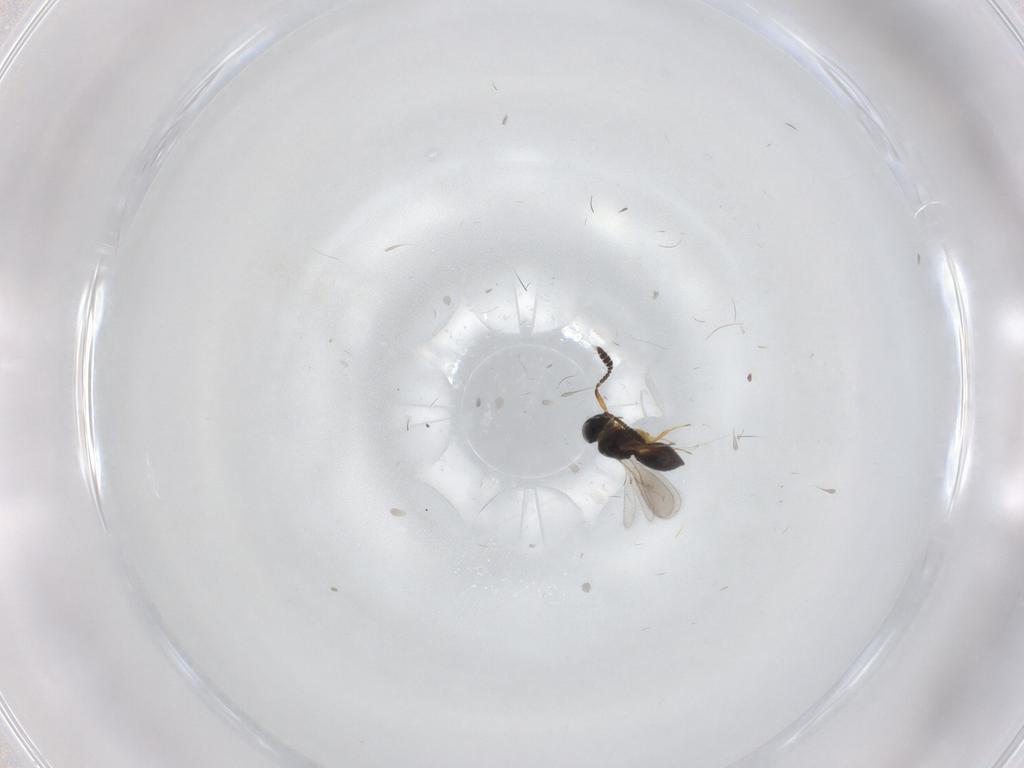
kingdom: Animalia
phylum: Arthropoda
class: Insecta
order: Hymenoptera
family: Scelionidae
